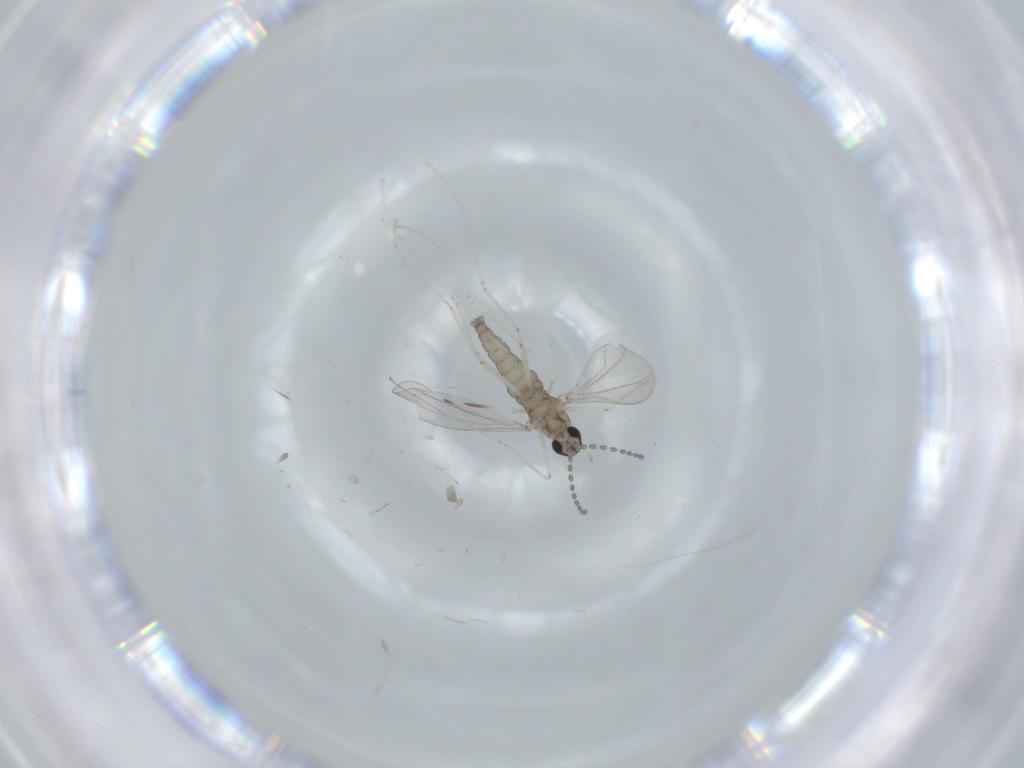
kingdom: Animalia
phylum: Arthropoda
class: Insecta
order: Diptera
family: Cecidomyiidae
